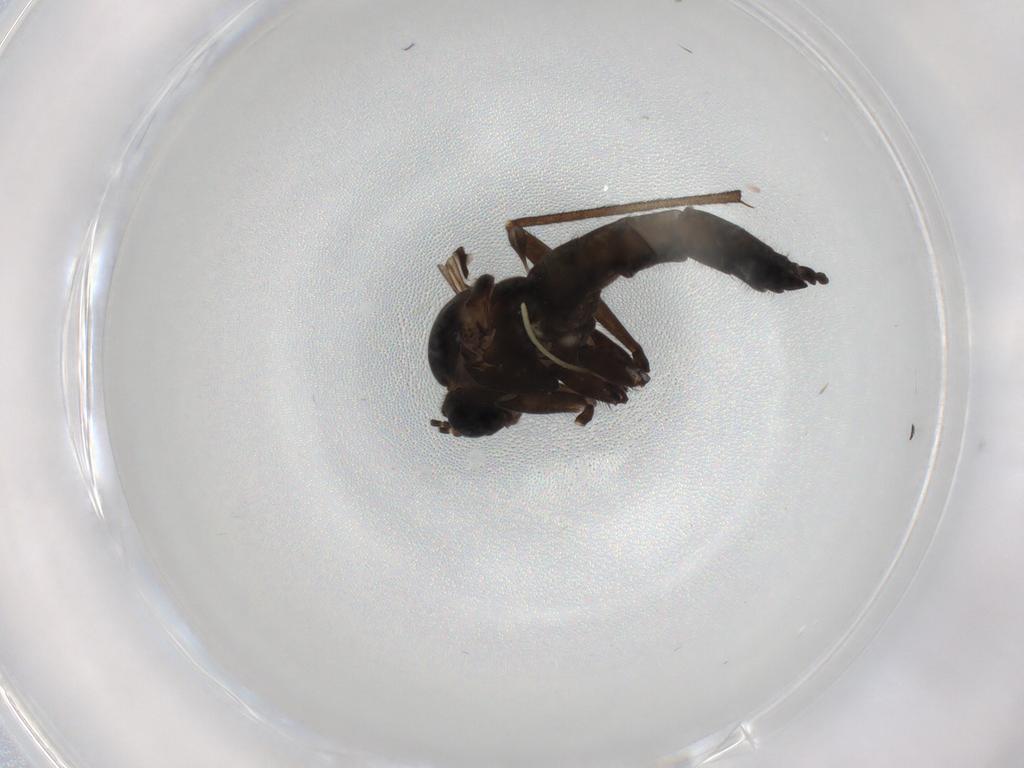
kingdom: Animalia
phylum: Arthropoda
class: Insecta
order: Diptera
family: Sciaridae
